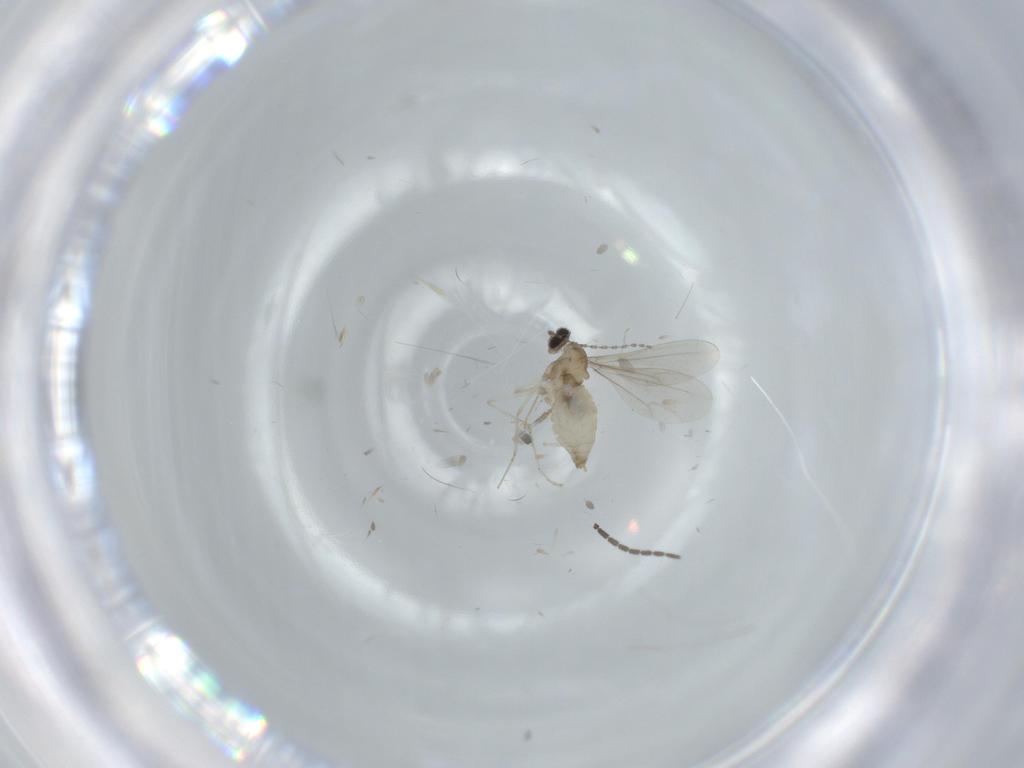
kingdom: Animalia
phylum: Arthropoda
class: Insecta
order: Diptera
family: Cecidomyiidae
